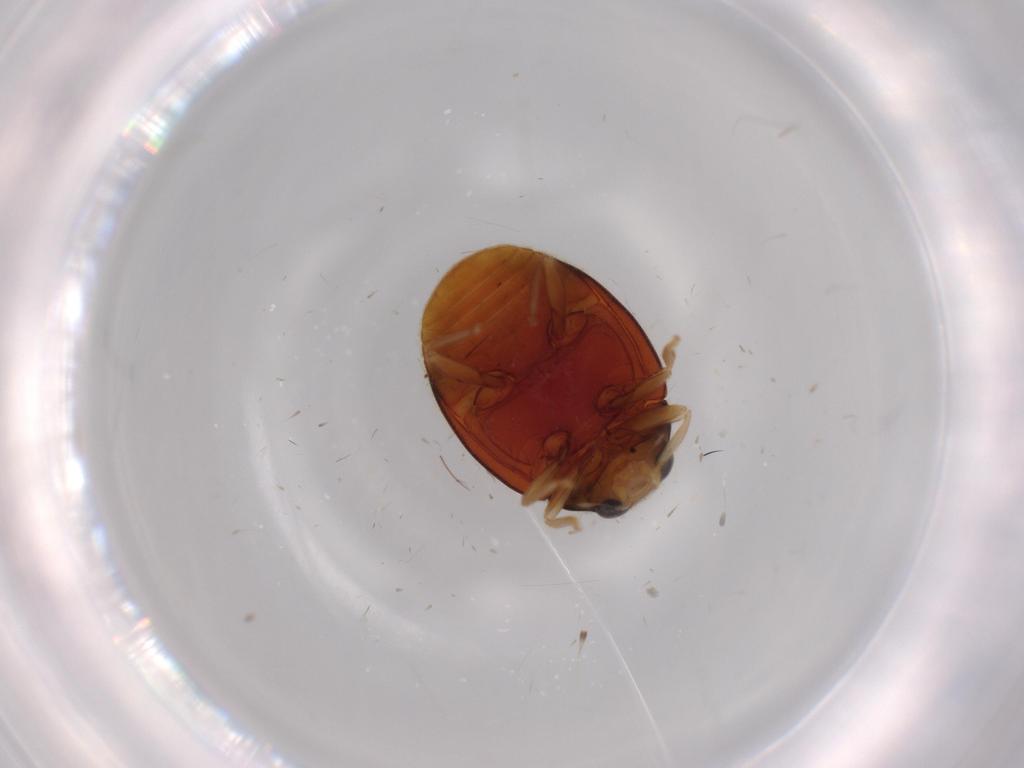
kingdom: Animalia
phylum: Arthropoda
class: Insecta
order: Coleoptera
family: Coccinellidae
